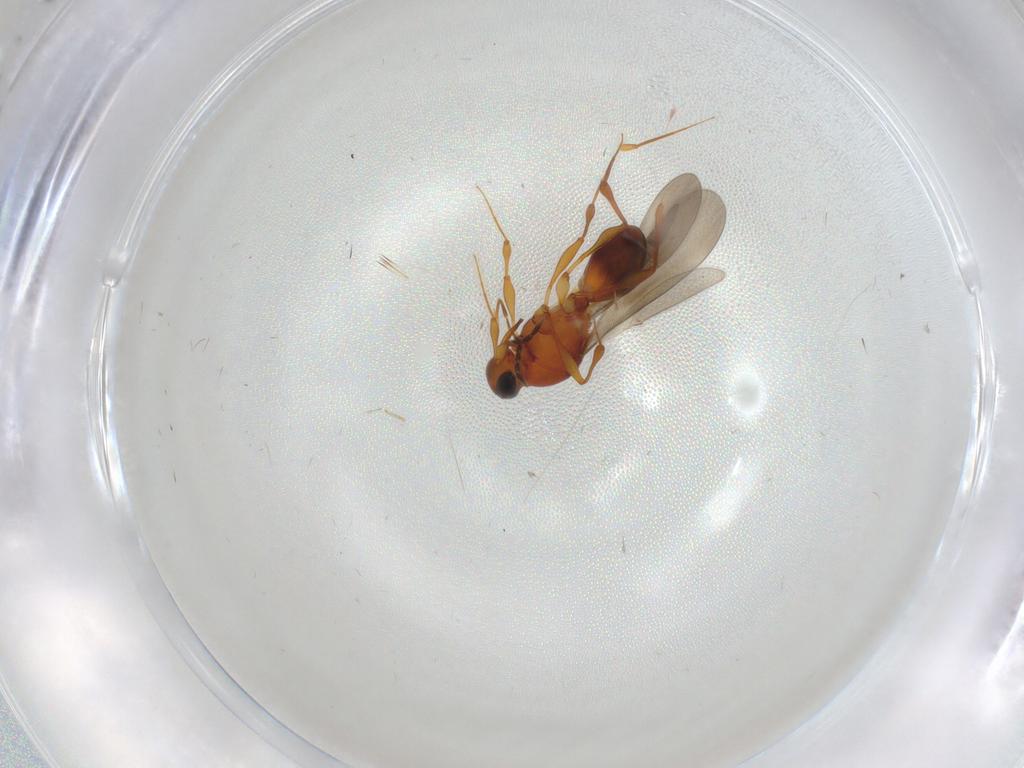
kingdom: Animalia
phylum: Arthropoda
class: Insecta
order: Hymenoptera
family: Platygastridae
